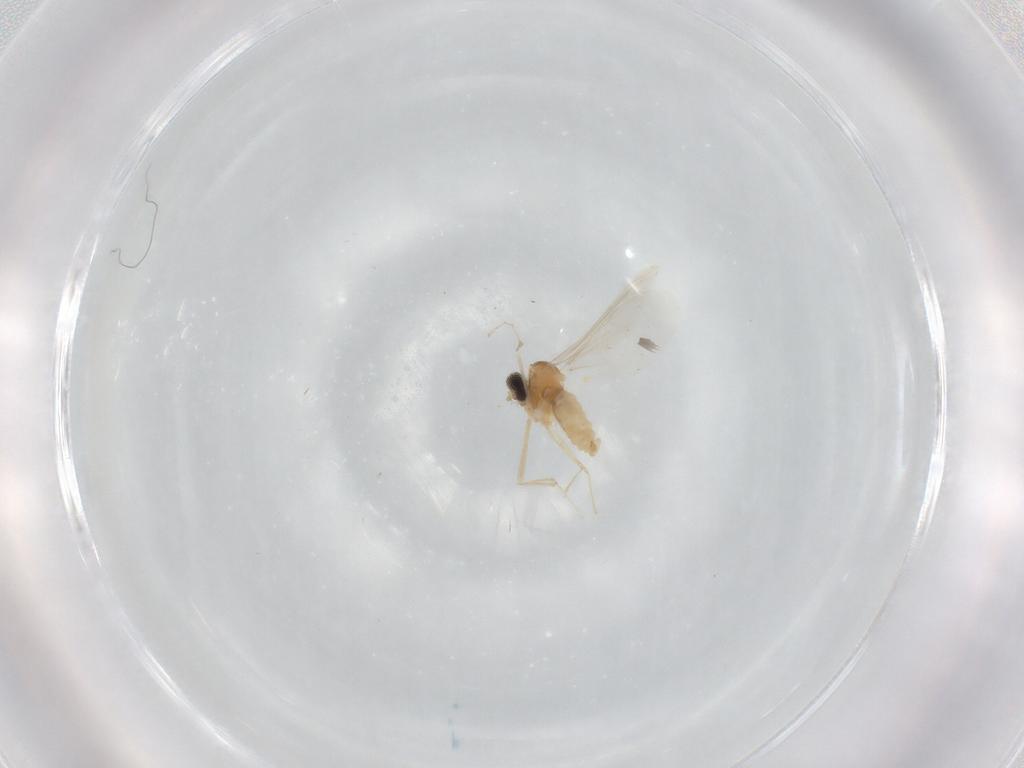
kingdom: Animalia
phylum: Arthropoda
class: Insecta
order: Diptera
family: Cecidomyiidae
